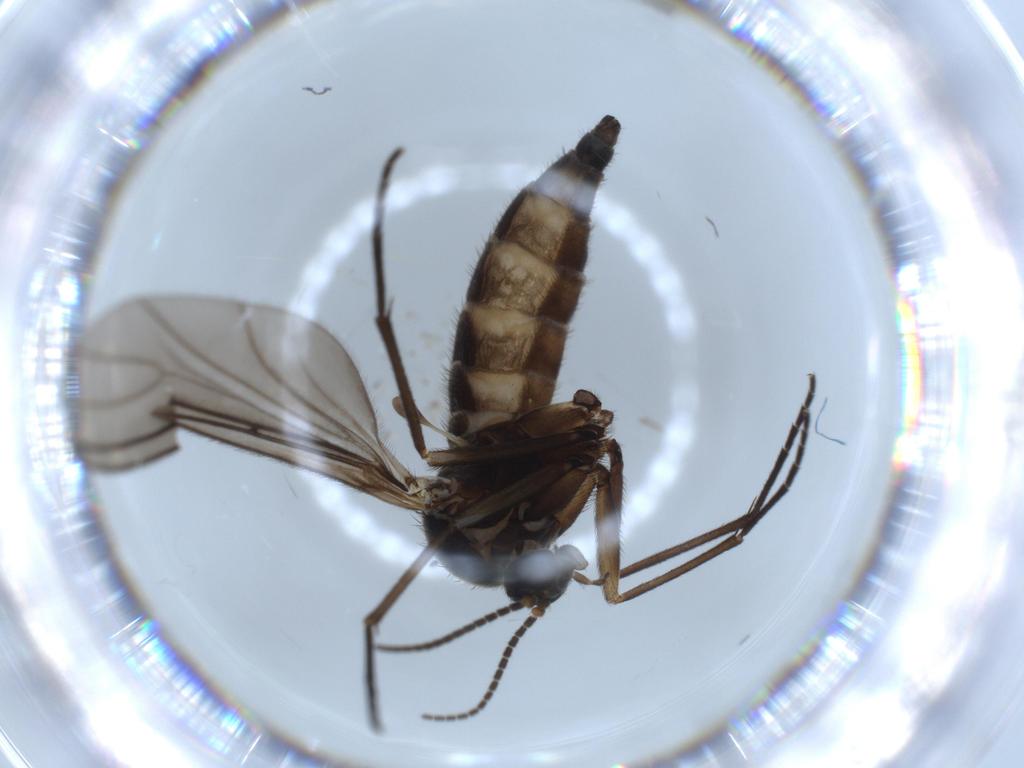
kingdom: Animalia
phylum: Arthropoda
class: Insecta
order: Diptera
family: Sciaridae
